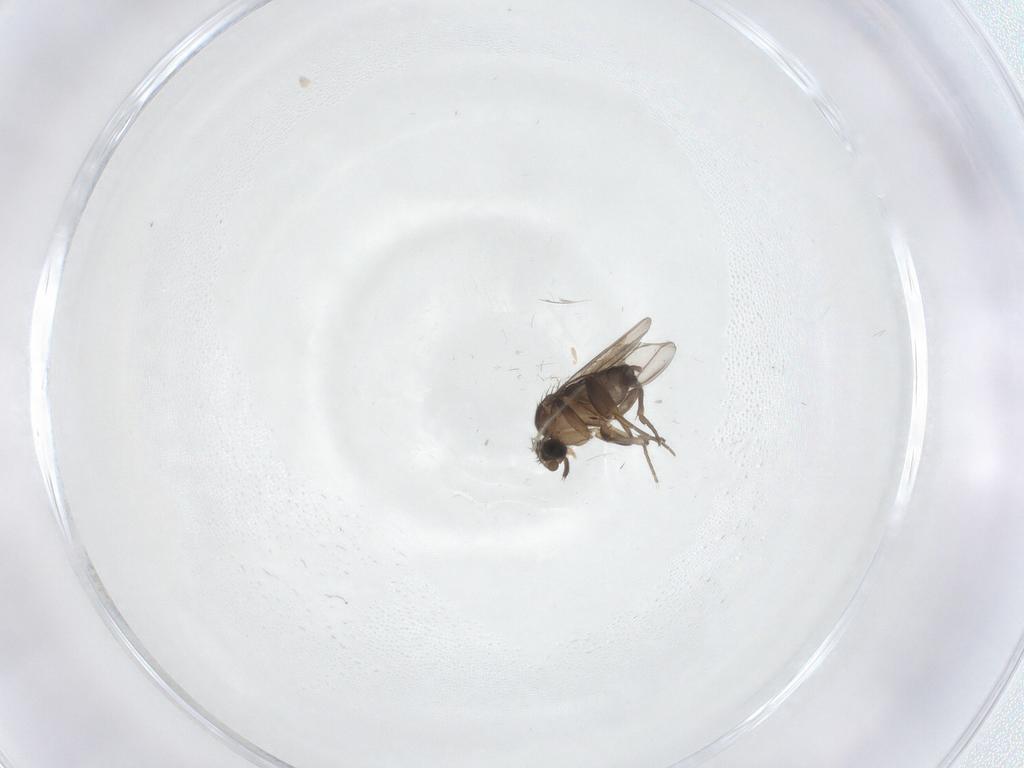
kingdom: Animalia
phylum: Arthropoda
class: Insecta
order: Diptera
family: Phoridae
